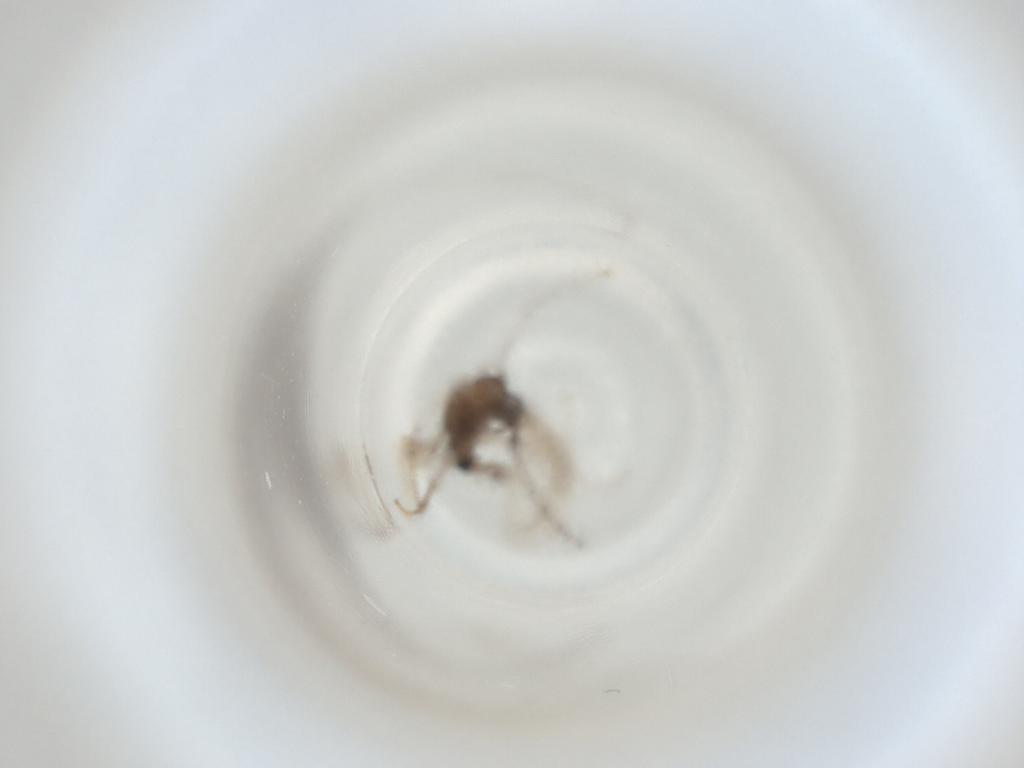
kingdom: Animalia
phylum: Arthropoda
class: Insecta
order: Diptera
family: Cecidomyiidae
